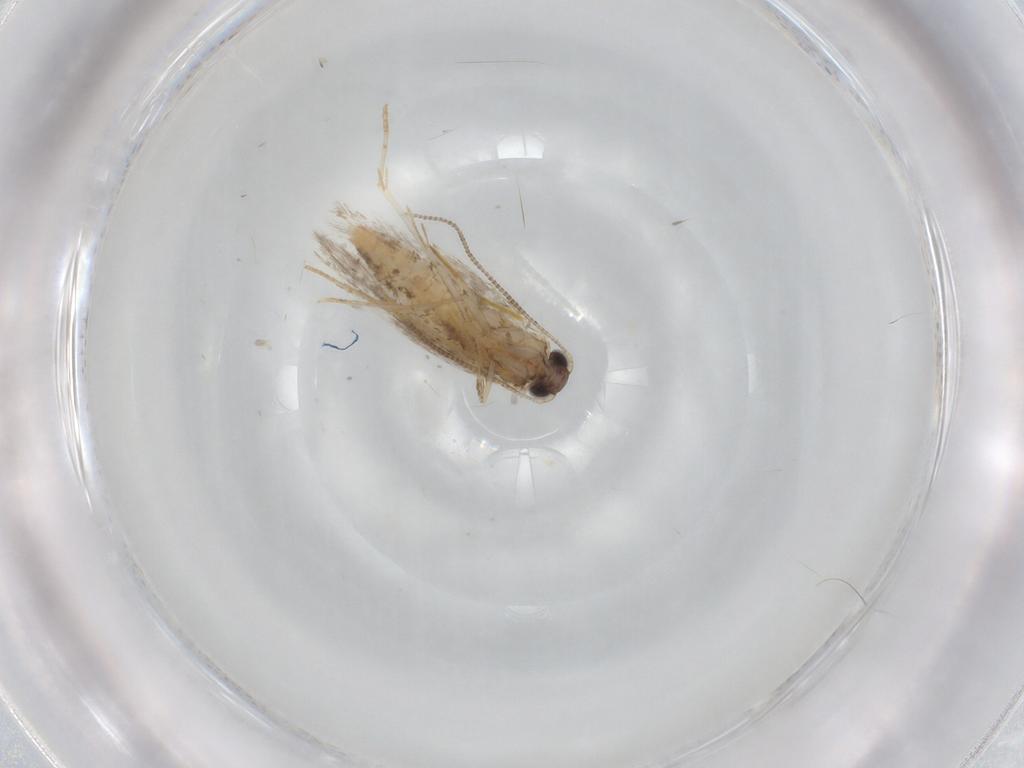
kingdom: Animalia
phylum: Arthropoda
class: Insecta
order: Lepidoptera
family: Tineidae
